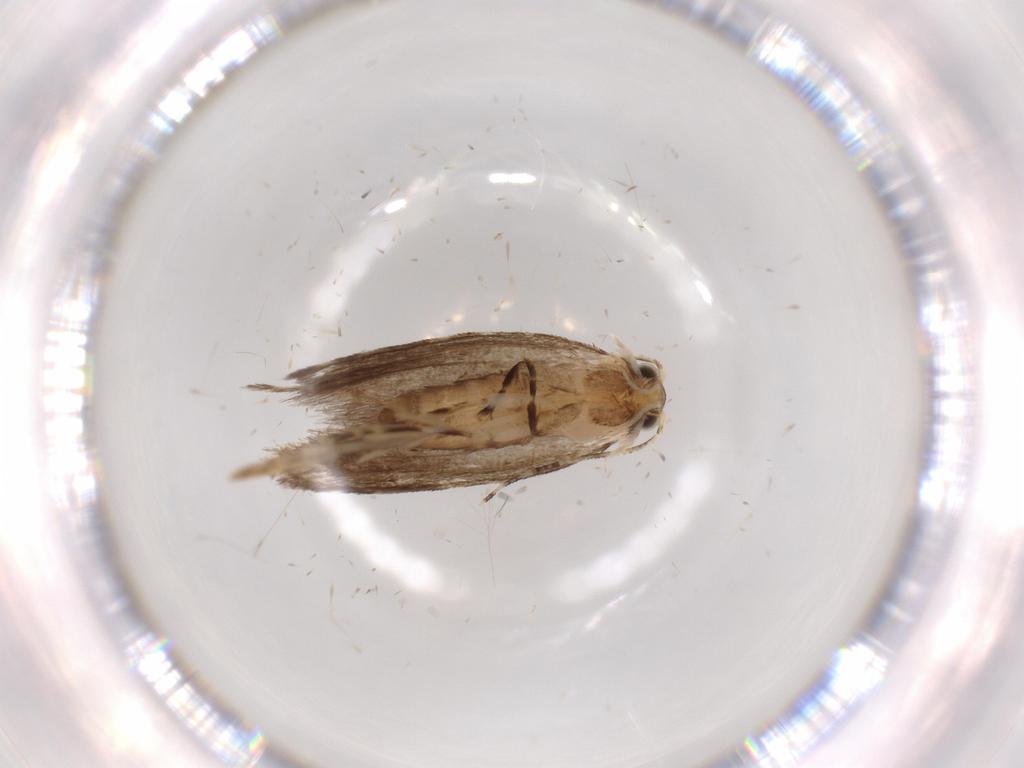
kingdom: Animalia
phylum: Arthropoda
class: Insecta
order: Lepidoptera
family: Tineidae
